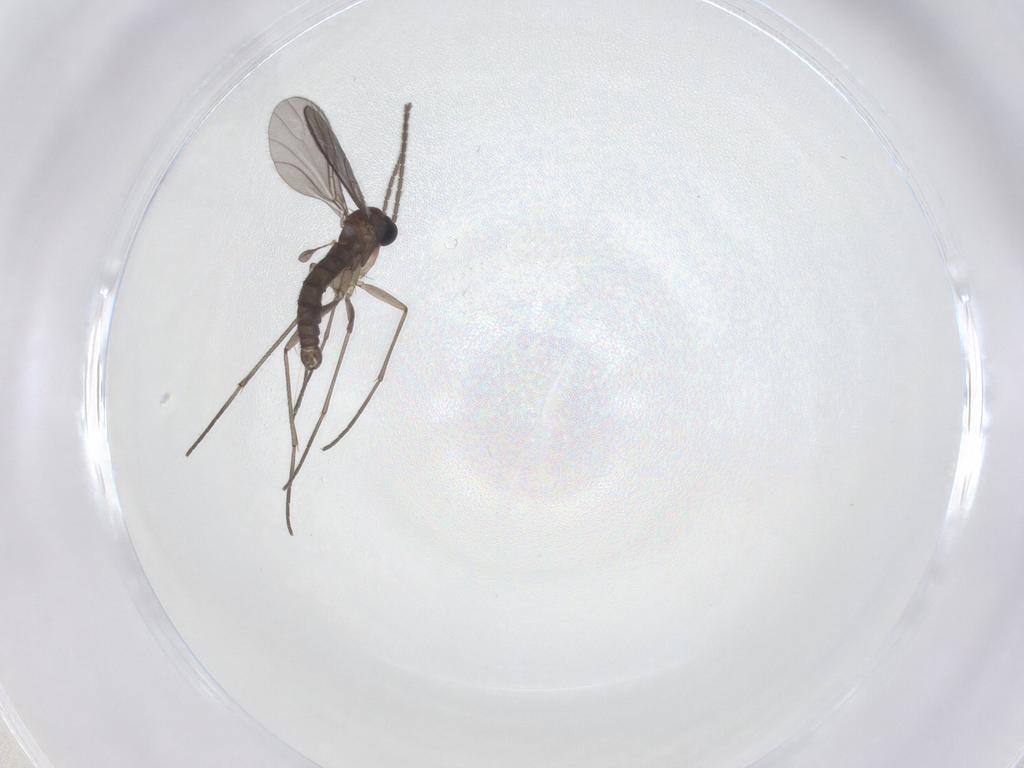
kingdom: Animalia
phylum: Arthropoda
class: Insecta
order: Diptera
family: Sciaridae
